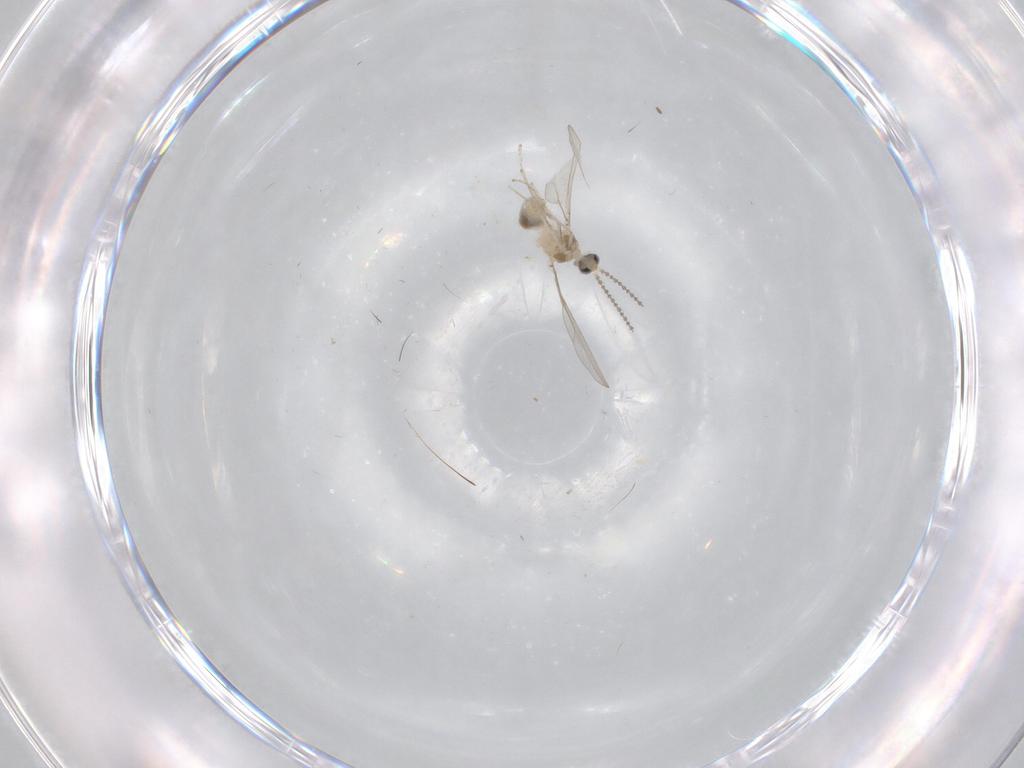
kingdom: Animalia
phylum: Arthropoda
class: Insecta
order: Diptera
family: Cecidomyiidae
